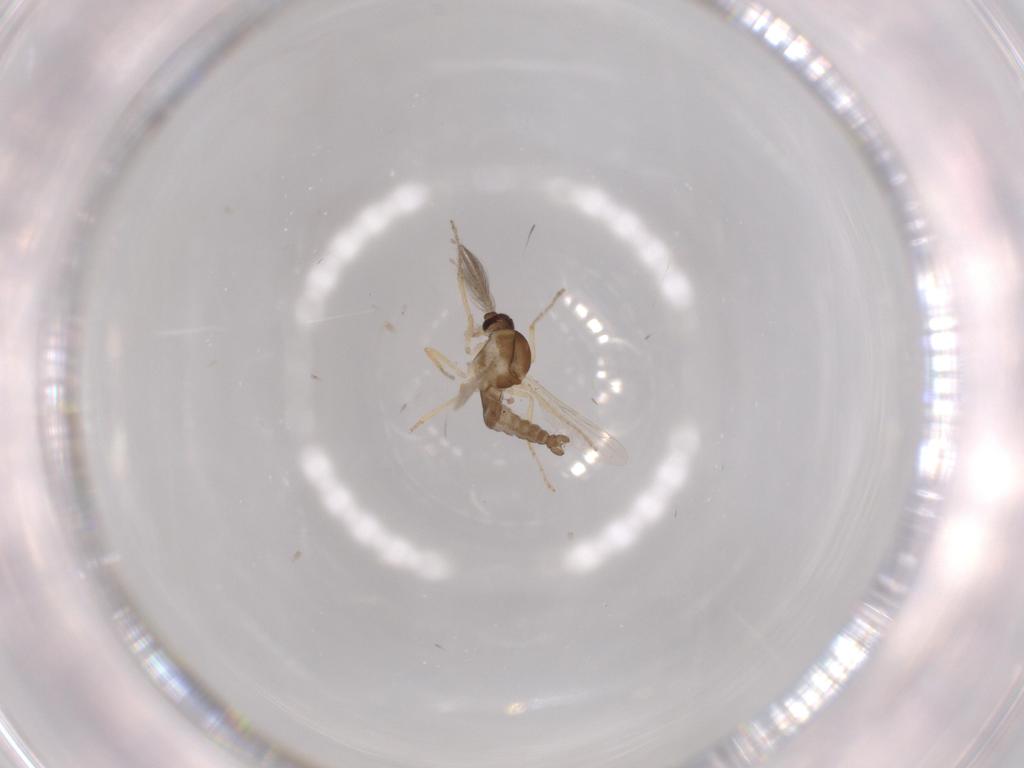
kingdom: Animalia
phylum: Arthropoda
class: Insecta
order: Diptera
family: Ceratopogonidae
